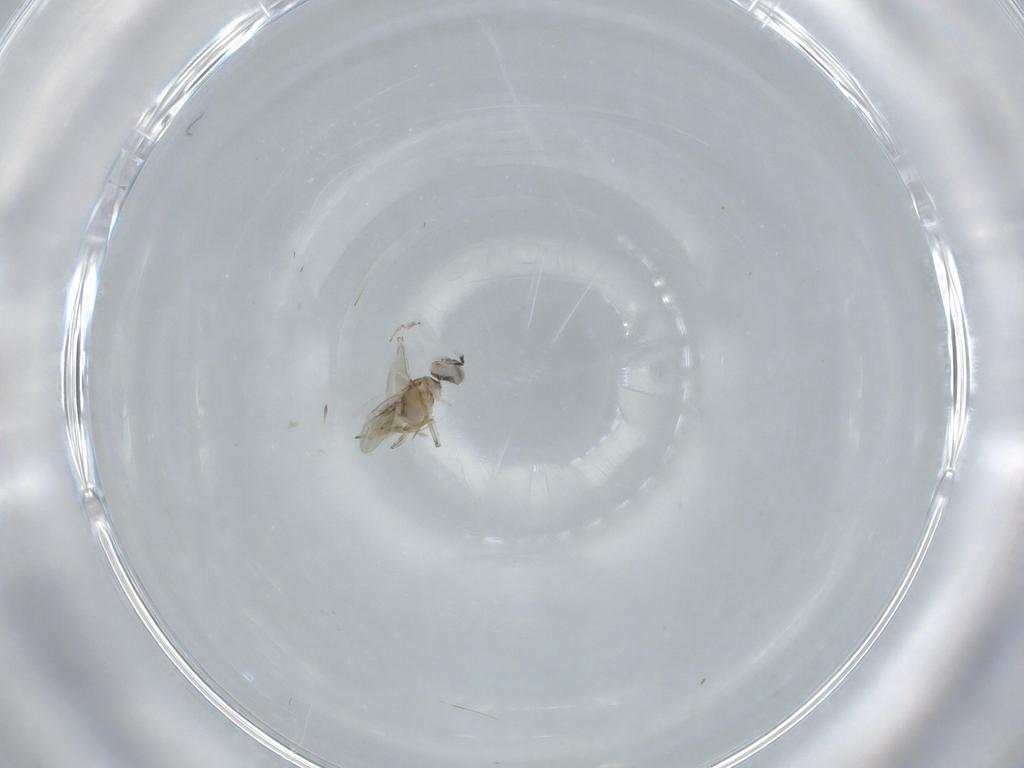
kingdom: Animalia
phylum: Arthropoda
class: Insecta
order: Hymenoptera
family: Encyrtidae
